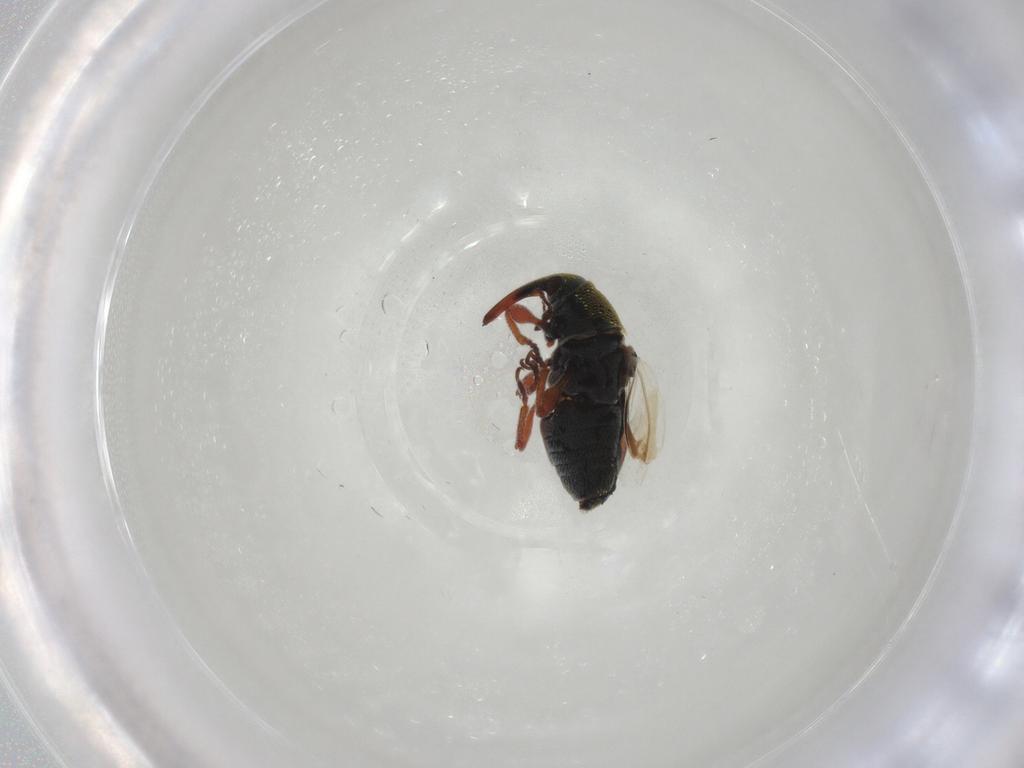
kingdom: Animalia
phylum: Arthropoda
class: Insecta
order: Coleoptera
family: Curculionidae
